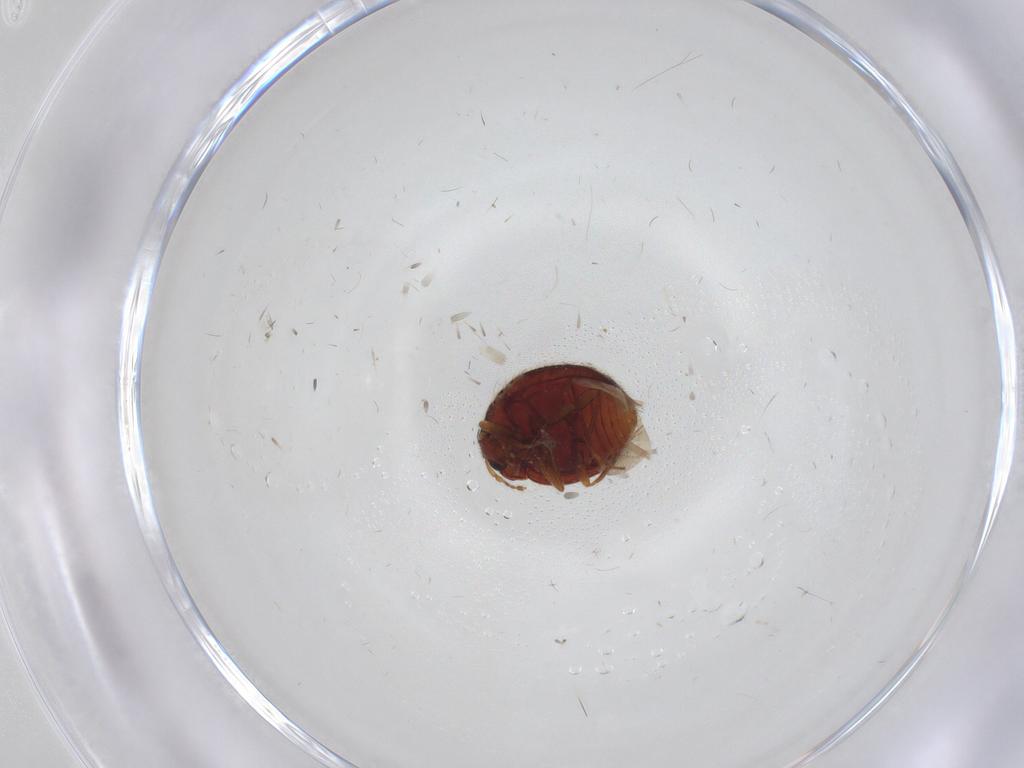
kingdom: Animalia
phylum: Arthropoda
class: Insecta
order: Coleoptera
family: Anamorphidae
